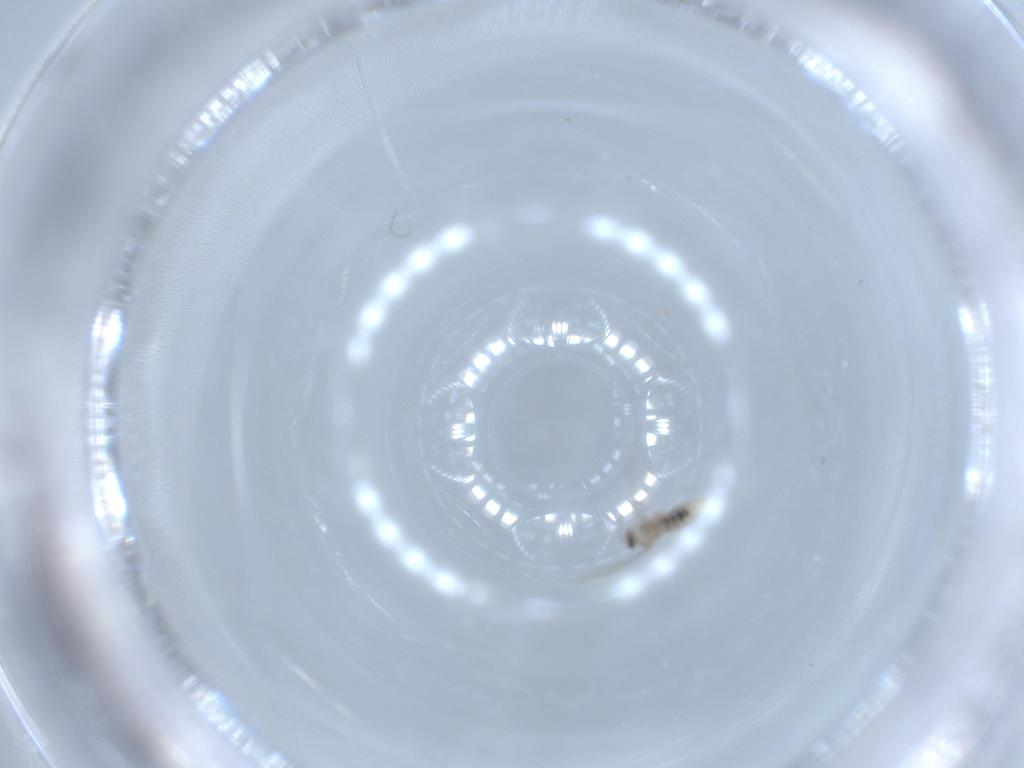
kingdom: Animalia
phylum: Arthropoda
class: Insecta
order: Diptera
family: Cecidomyiidae
